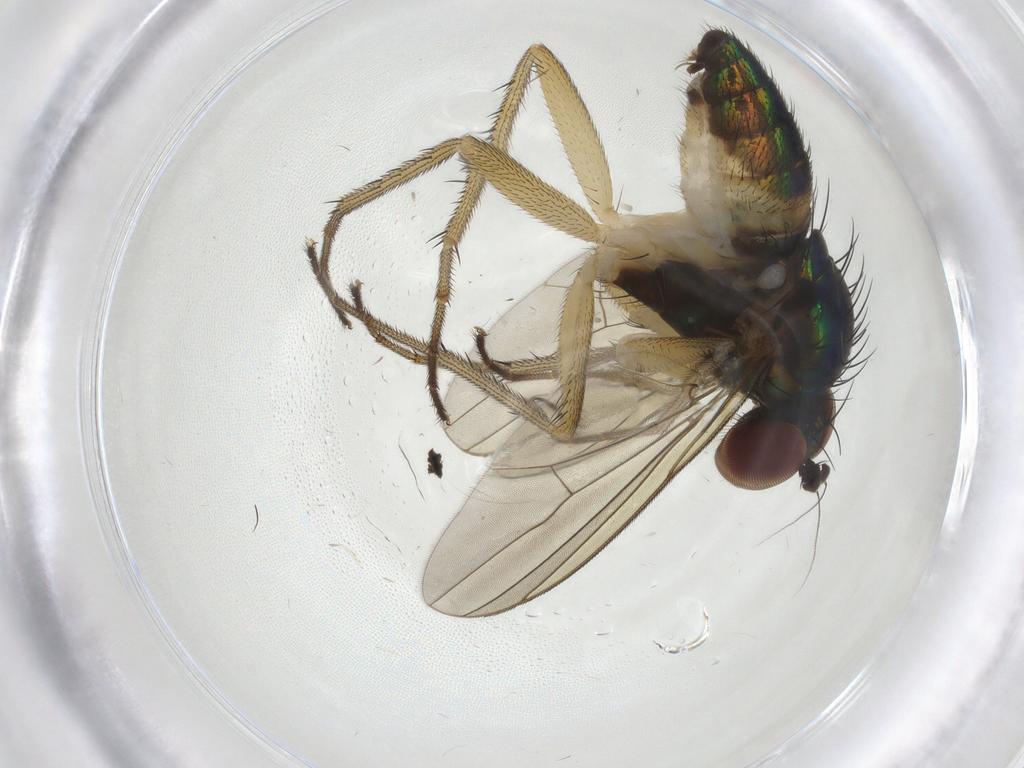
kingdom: Animalia
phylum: Arthropoda
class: Insecta
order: Diptera
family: Dolichopodidae
